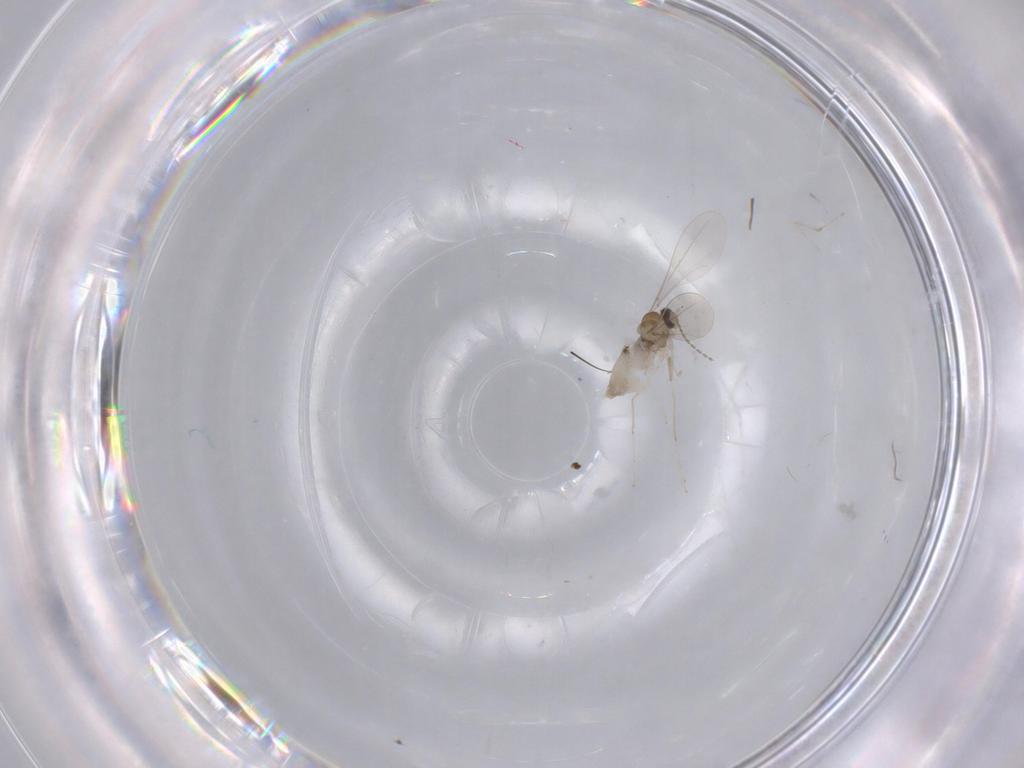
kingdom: Animalia
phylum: Arthropoda
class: Insecta
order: Diptera
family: Cecidomyiidae
